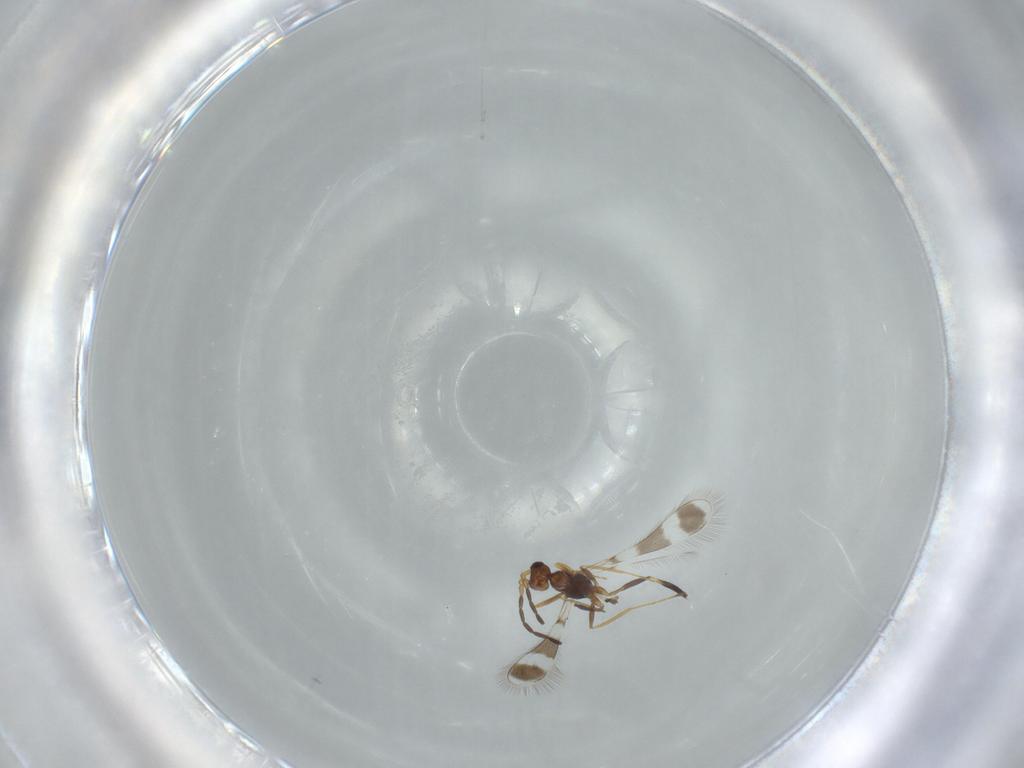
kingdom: Animalia
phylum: Arthropoda
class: Insecta
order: Hymenoptera
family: Mymaridae
